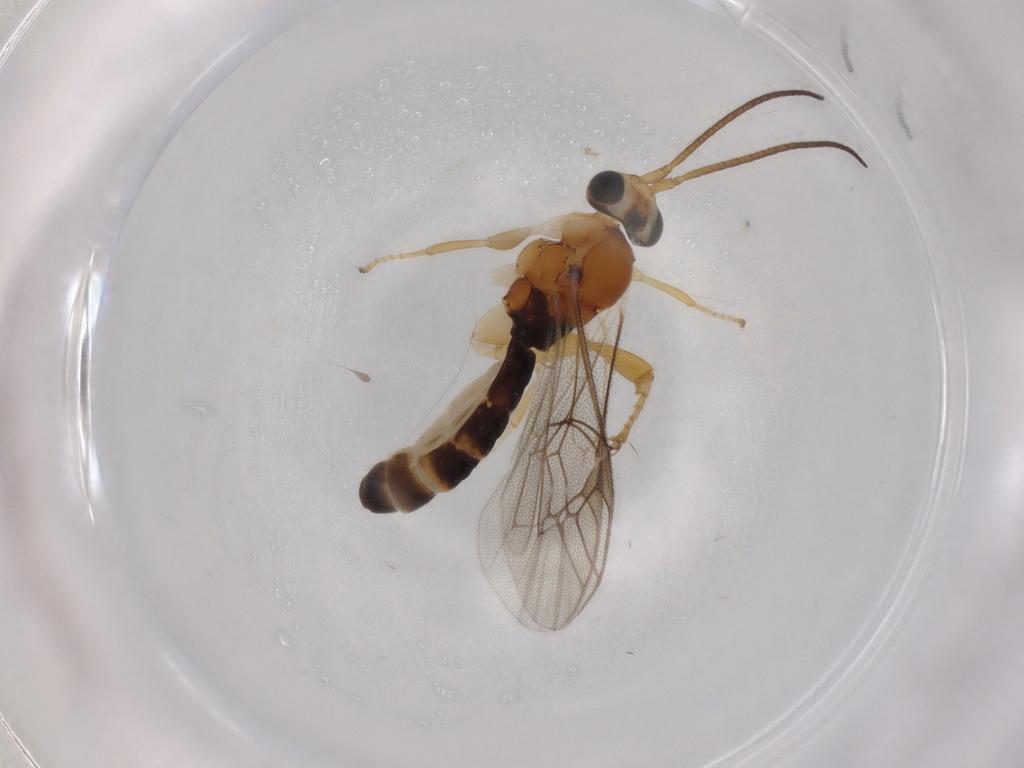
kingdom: Animalia
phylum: Arthropoda
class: Insecta
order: Hymenoptera
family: Ichneumonidae
